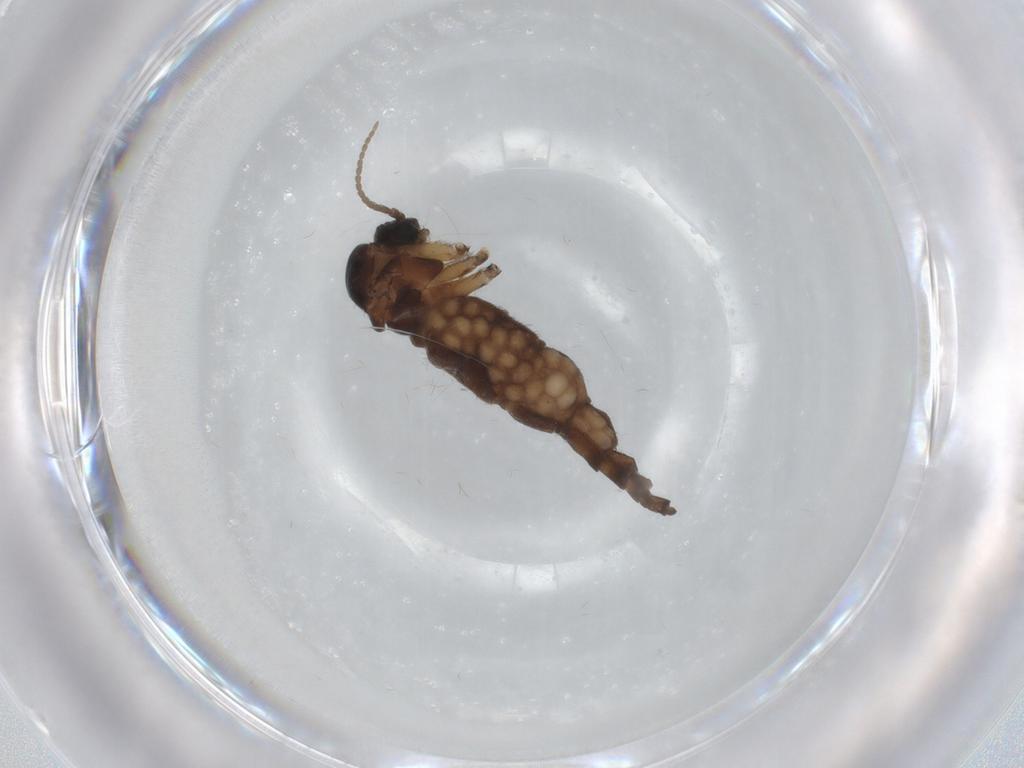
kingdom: Animalia
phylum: Arthropoda
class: Insecta
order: Diptera
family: Sciaridae
